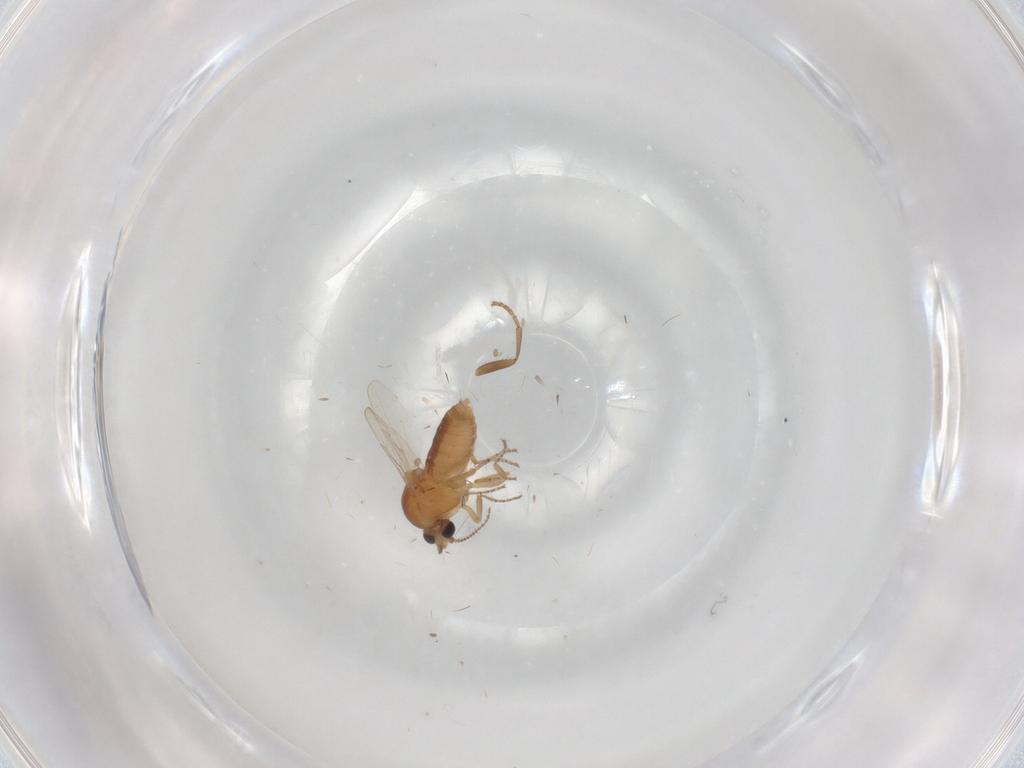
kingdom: Animalia
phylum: Arthropoda
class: Insecta
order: Diptera
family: Ceratopogonidae
